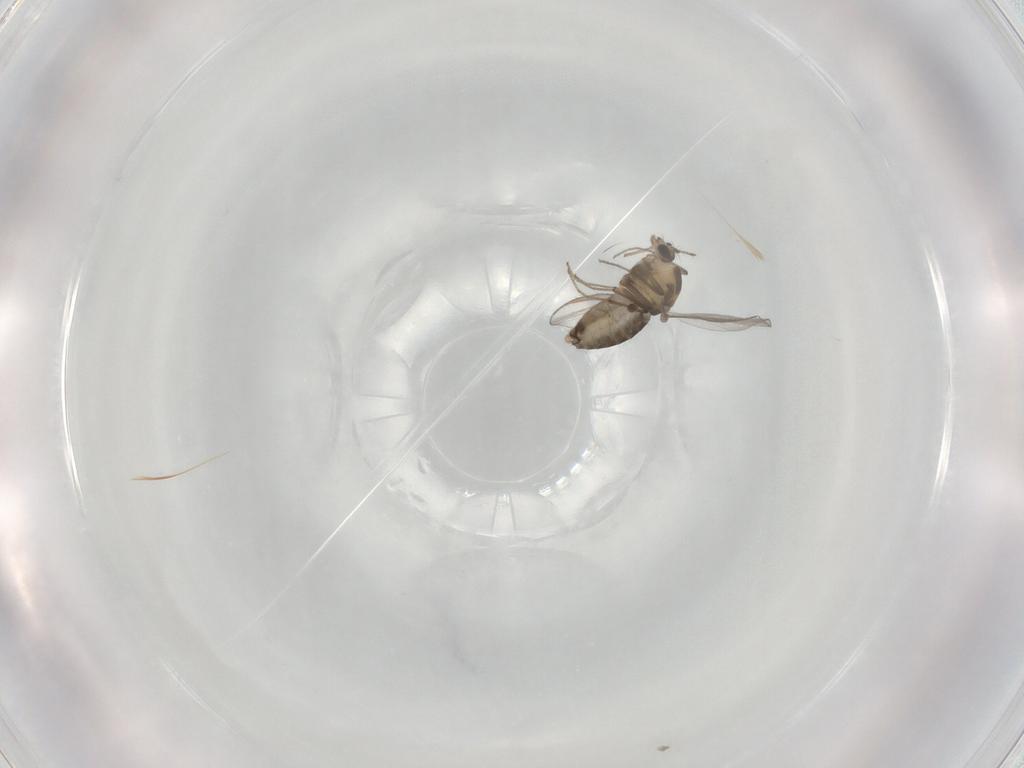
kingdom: Animalia
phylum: Arthropoda
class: Insecta
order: Diptera
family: Chironomidae
